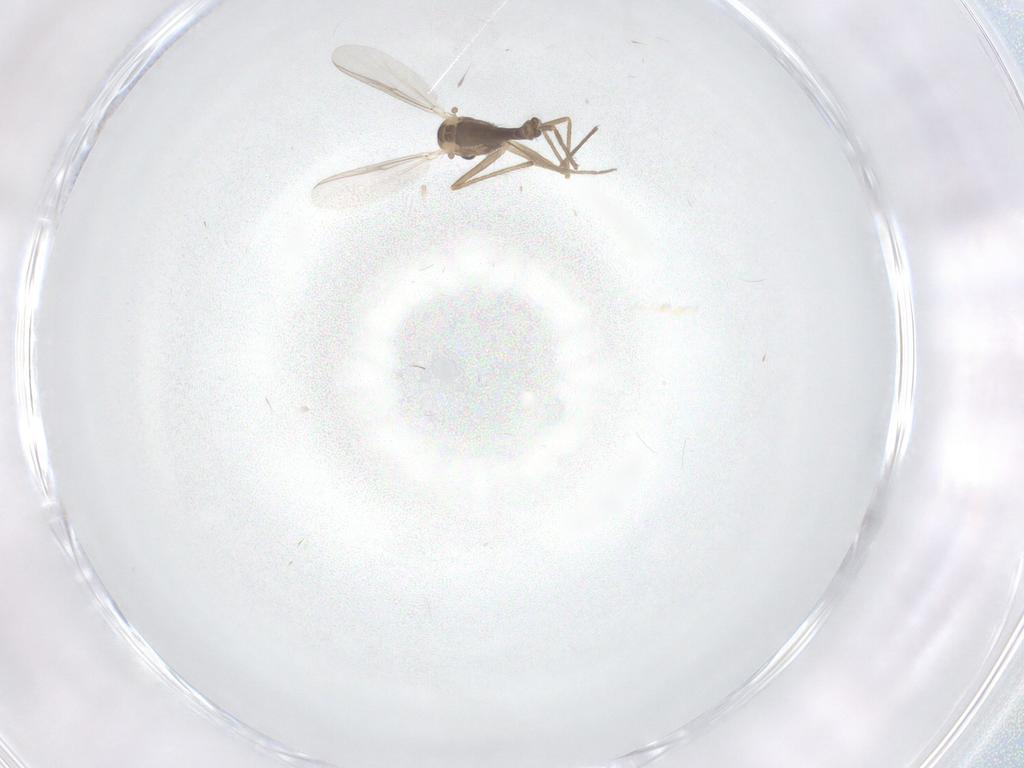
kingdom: Animalia
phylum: Arthropoda
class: Insecta
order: Diptera
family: Chironomidae
